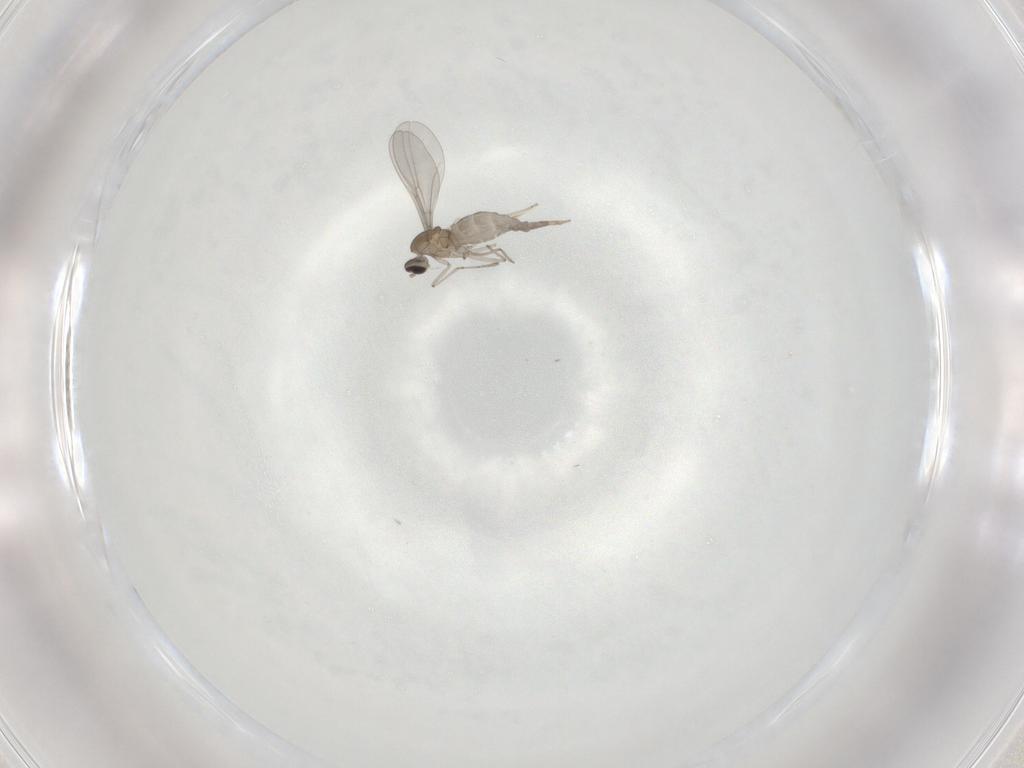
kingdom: Animalia
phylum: Arthropoda
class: Insecta
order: Diptera
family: Cecidomyiidae
